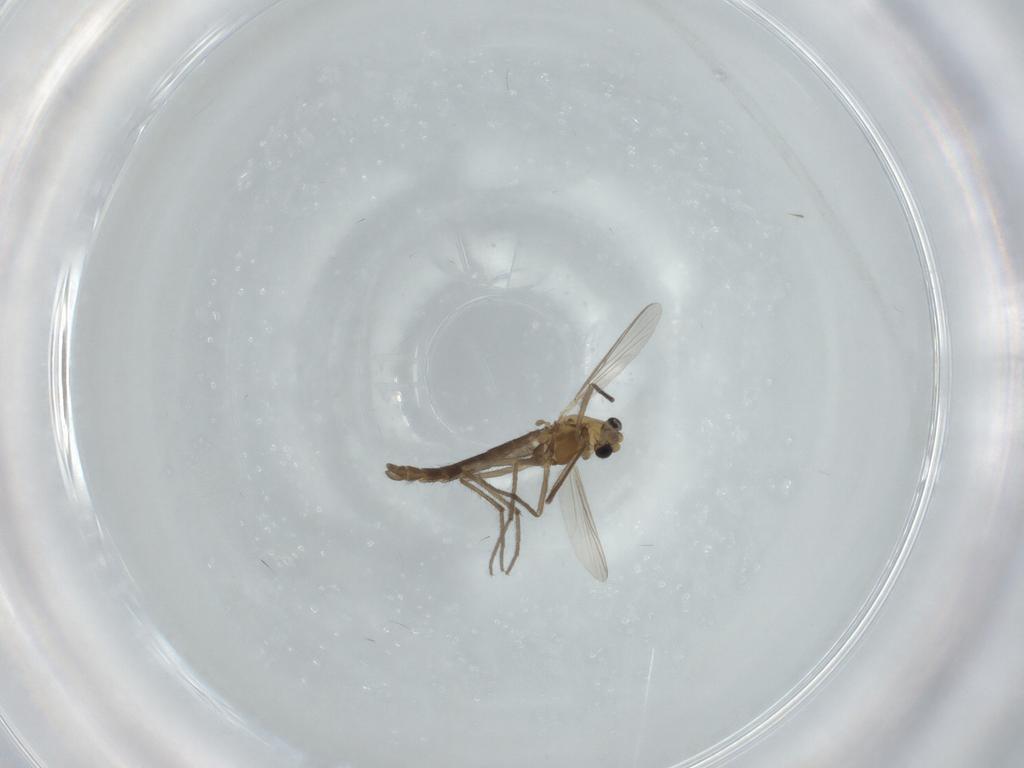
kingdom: Animalia
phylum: Arthropoda
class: Insecta
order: Diptera
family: Chironomidae
